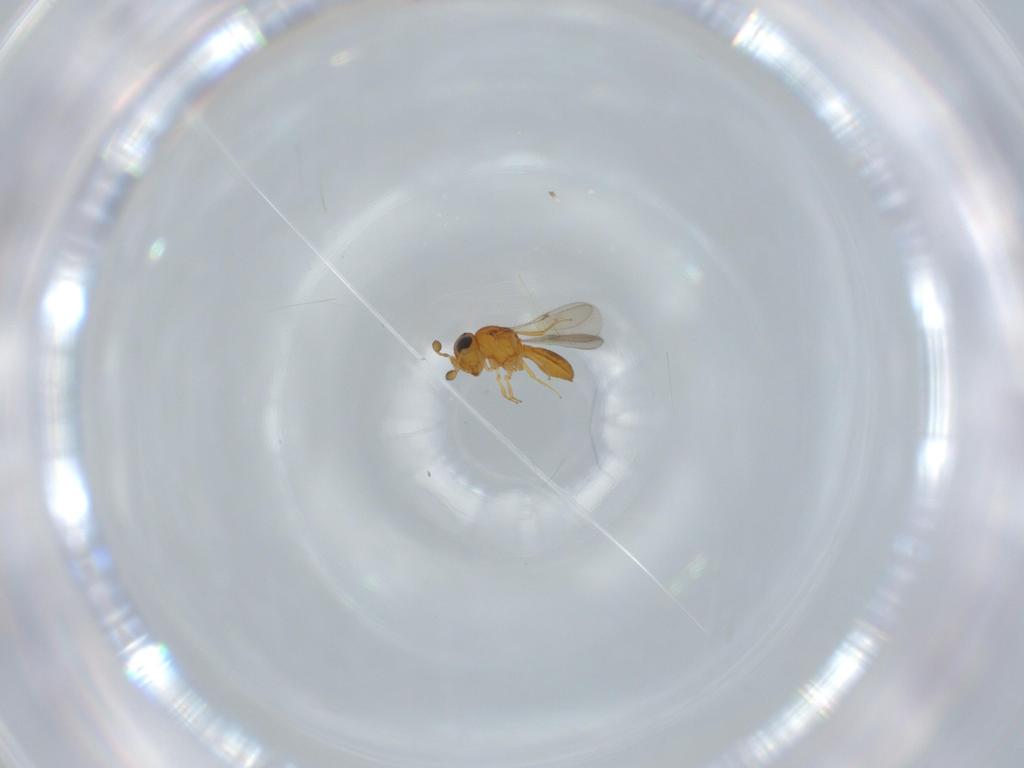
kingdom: Animalia
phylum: Arthropoda
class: Insecta
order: Hymenoptera
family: Scelionidae
